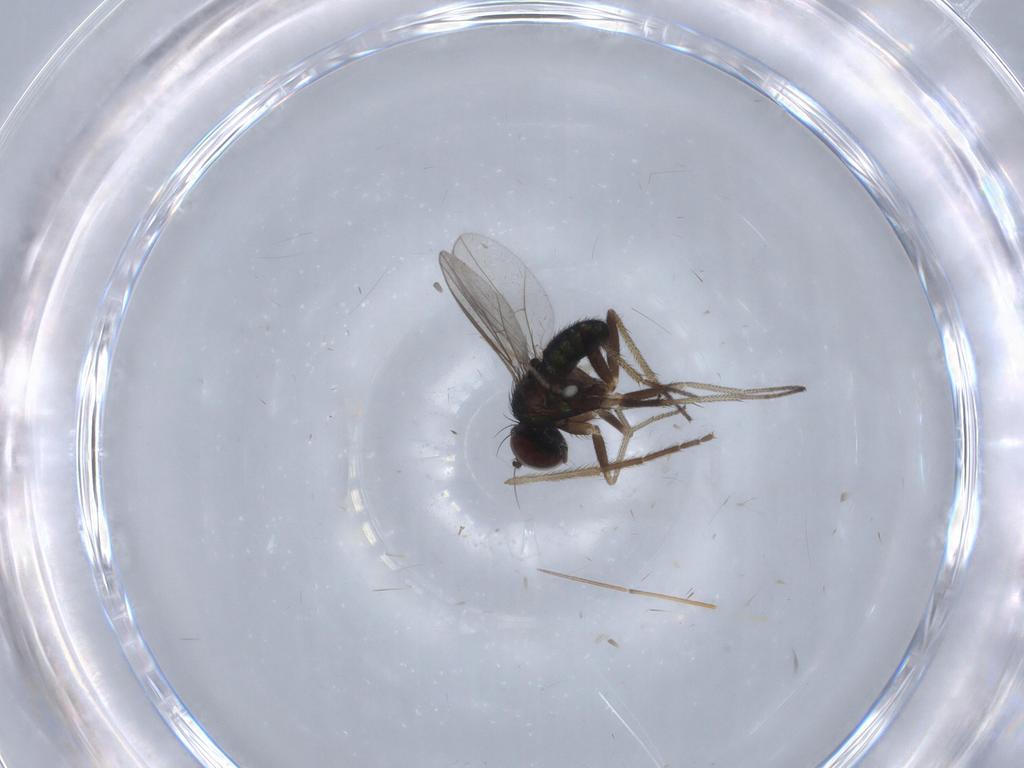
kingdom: Animalia
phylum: Arthropoda
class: Insecta
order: Diptera
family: Chironomidae
